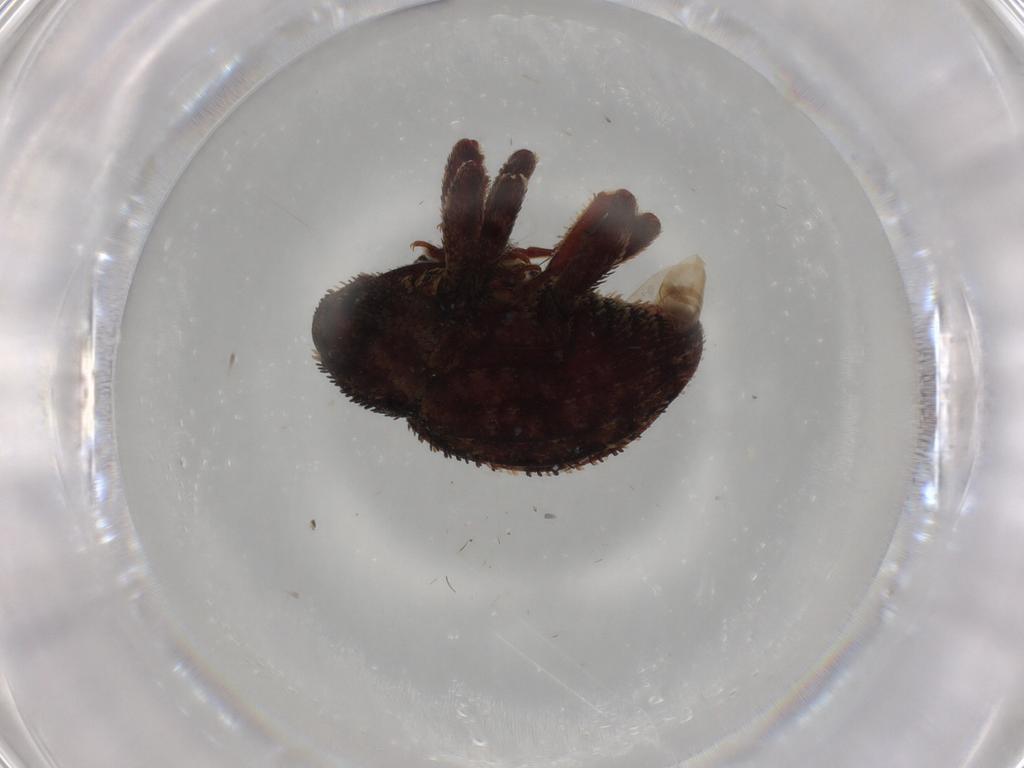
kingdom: Animalia
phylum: Arthropoda
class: Insecta
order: Coleoptera
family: Curculionidae
